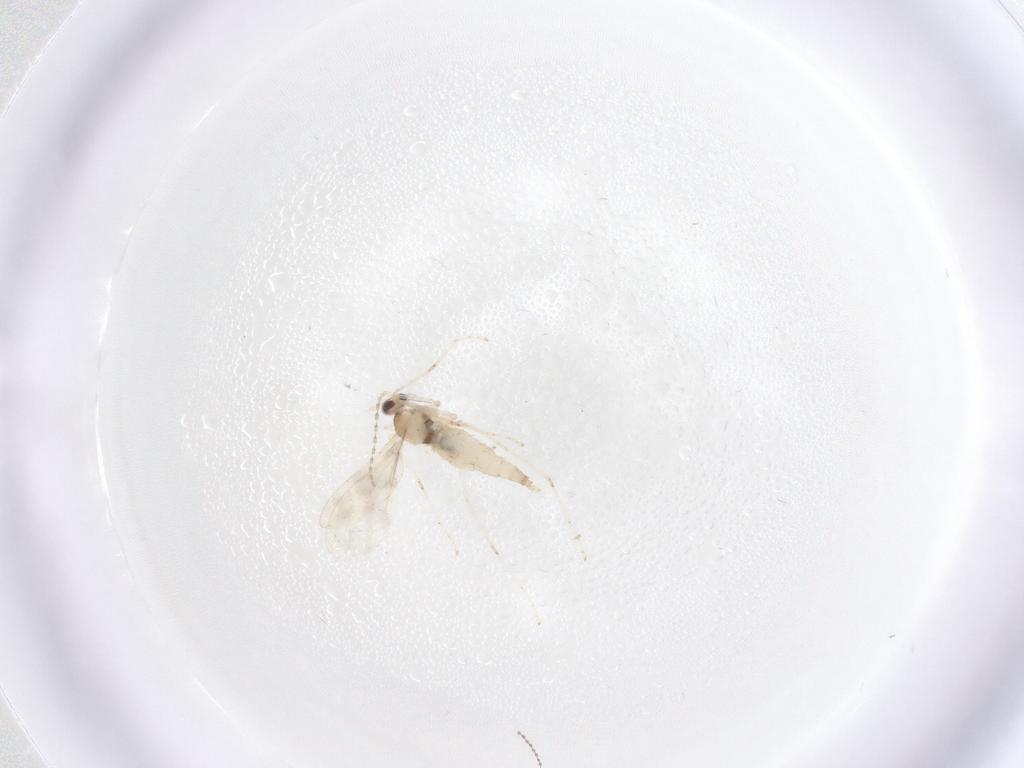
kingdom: Animalia
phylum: Arthropoda
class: Insecta
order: Diptera
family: Cecidomyiidae
